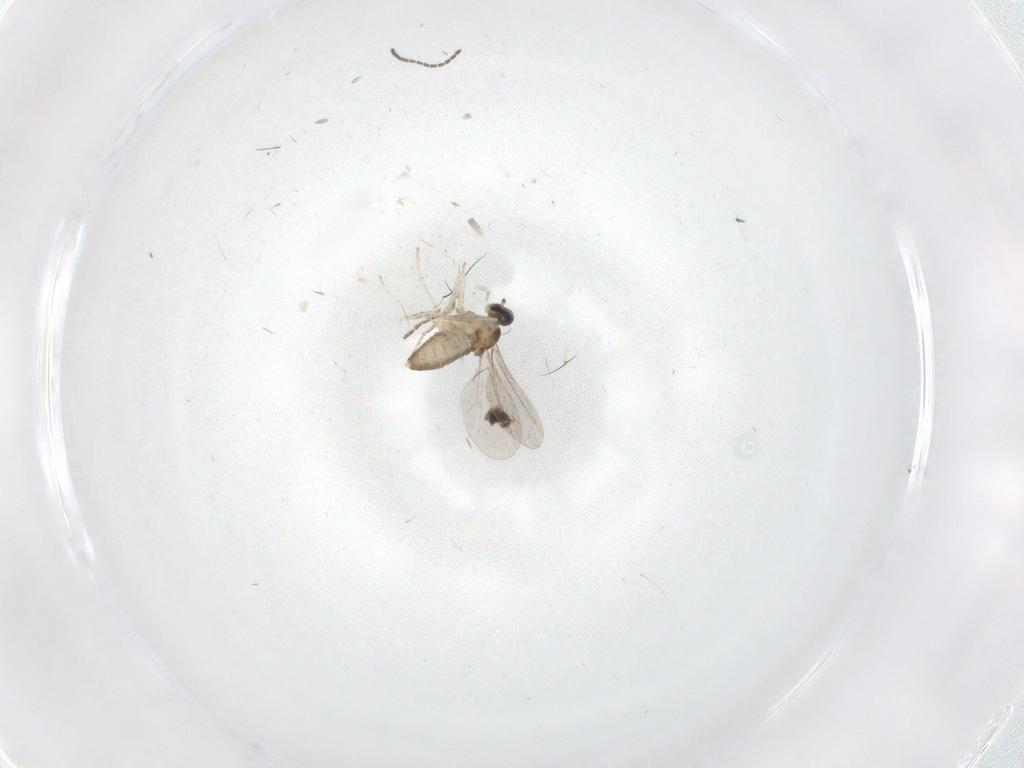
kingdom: Animalia
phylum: Arthropoda
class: Insecta
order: Diptera
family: Cecidomyiidae
